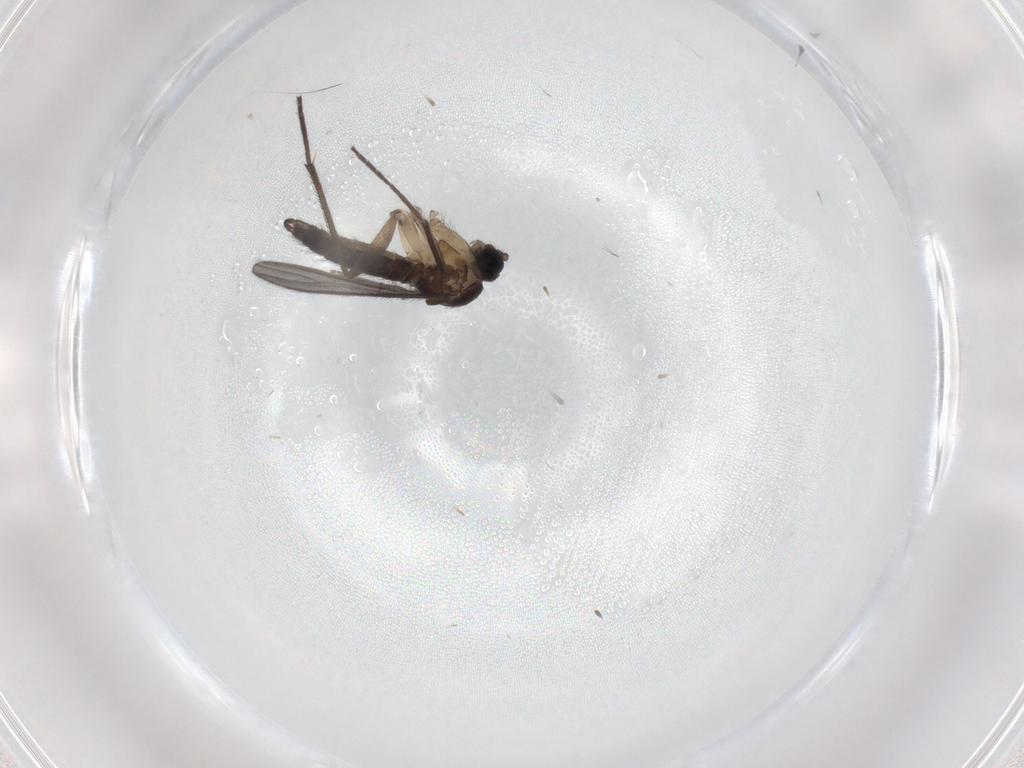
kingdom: Animalia
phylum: Arthropoda
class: Insecta
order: Diptera
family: Sciaridae
